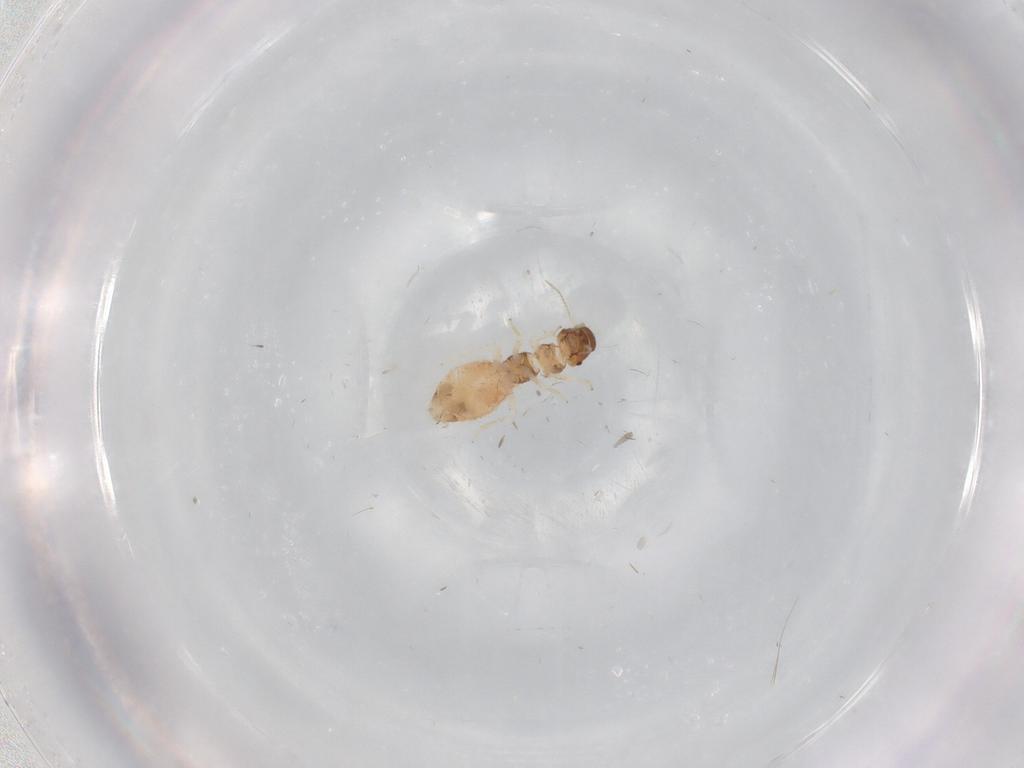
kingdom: Animalia
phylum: Arthropoda
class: Insecta
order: Psocodea
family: Archipsocidae
